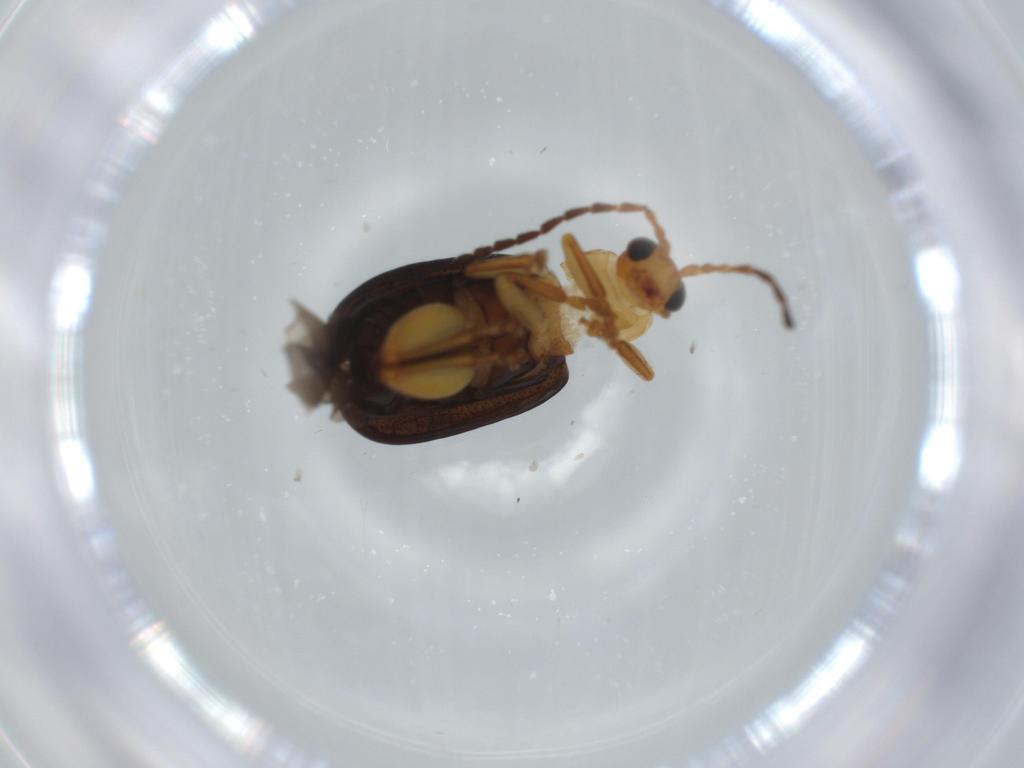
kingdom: Animalia
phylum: Arthropoda
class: Insecta
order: Coleoptera
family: Chrysomelidae
